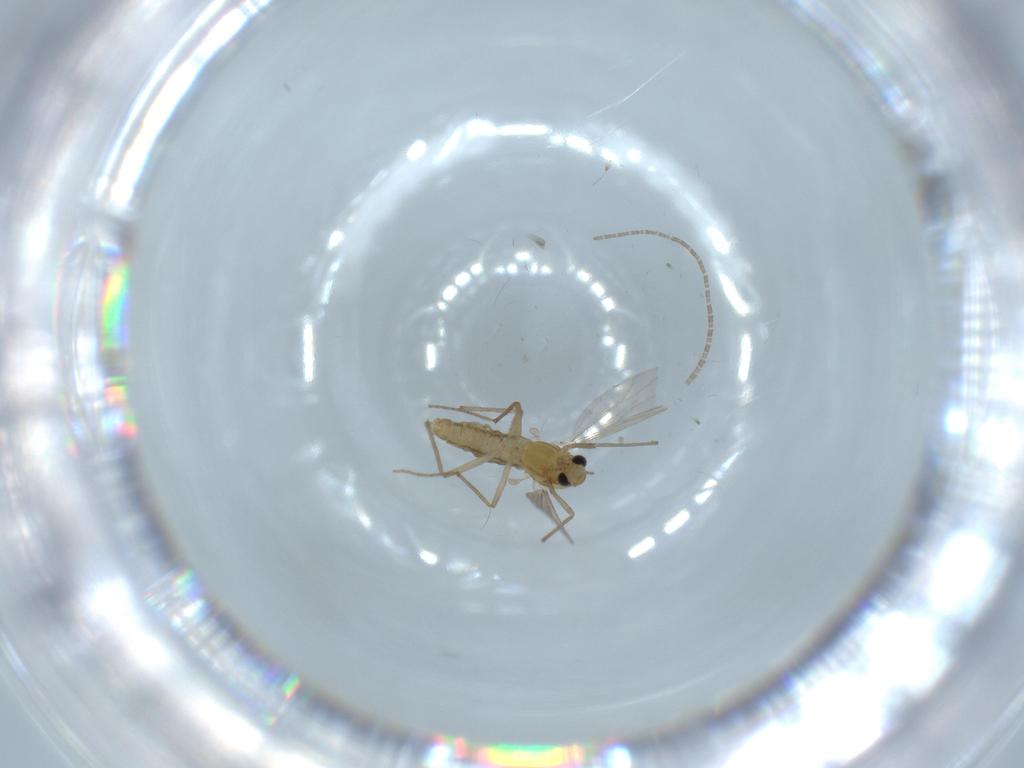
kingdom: Animalia
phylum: Arthropoda
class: Insecta
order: Diptera
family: Chironomidae
